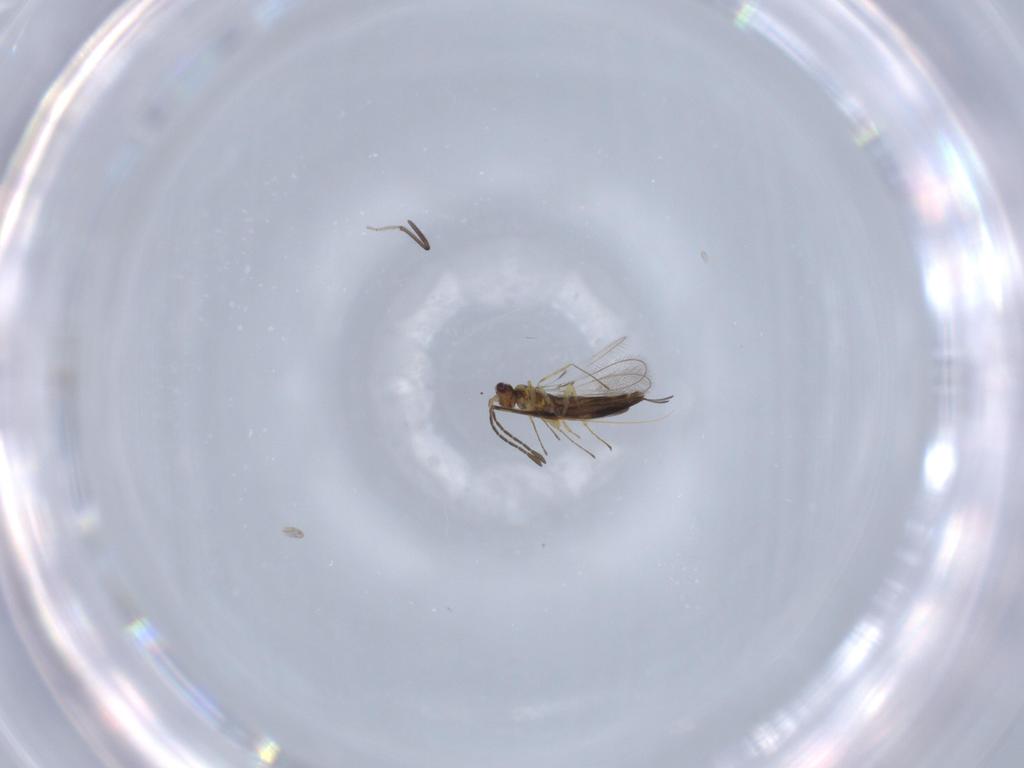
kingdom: Animalia
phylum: Arthropoda
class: Insecta
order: Hymenoptera
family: Mymaridae
